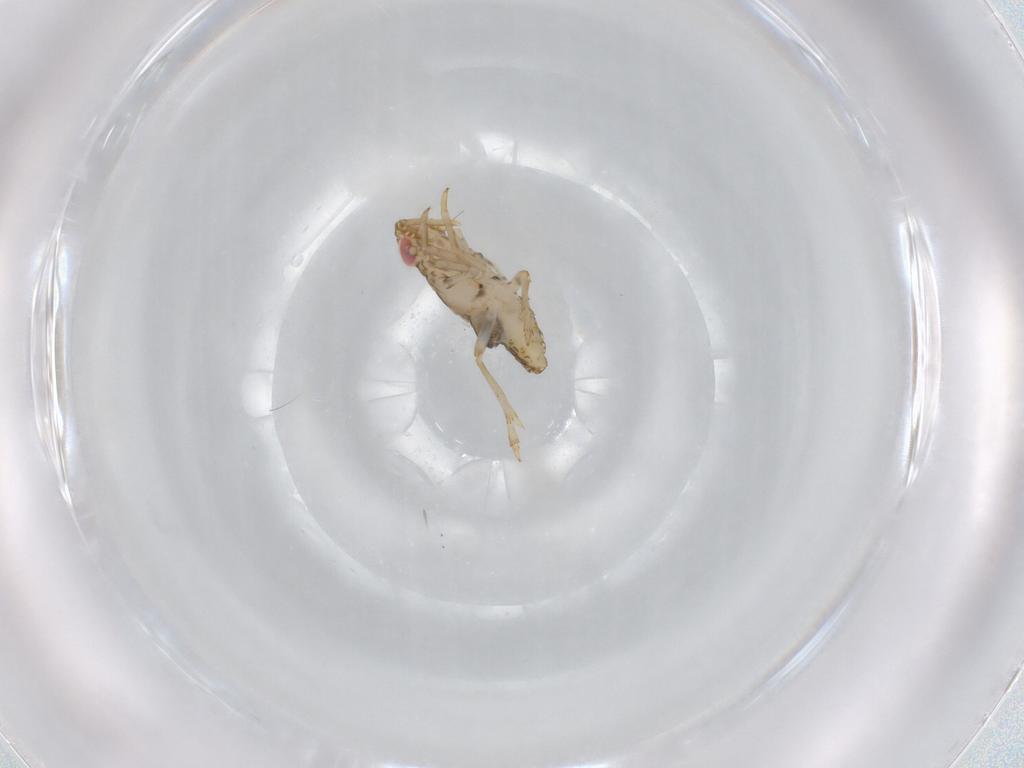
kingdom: Animalia
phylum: Arthropoda
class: Insecta
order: Hemiptera
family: Delphacidae
